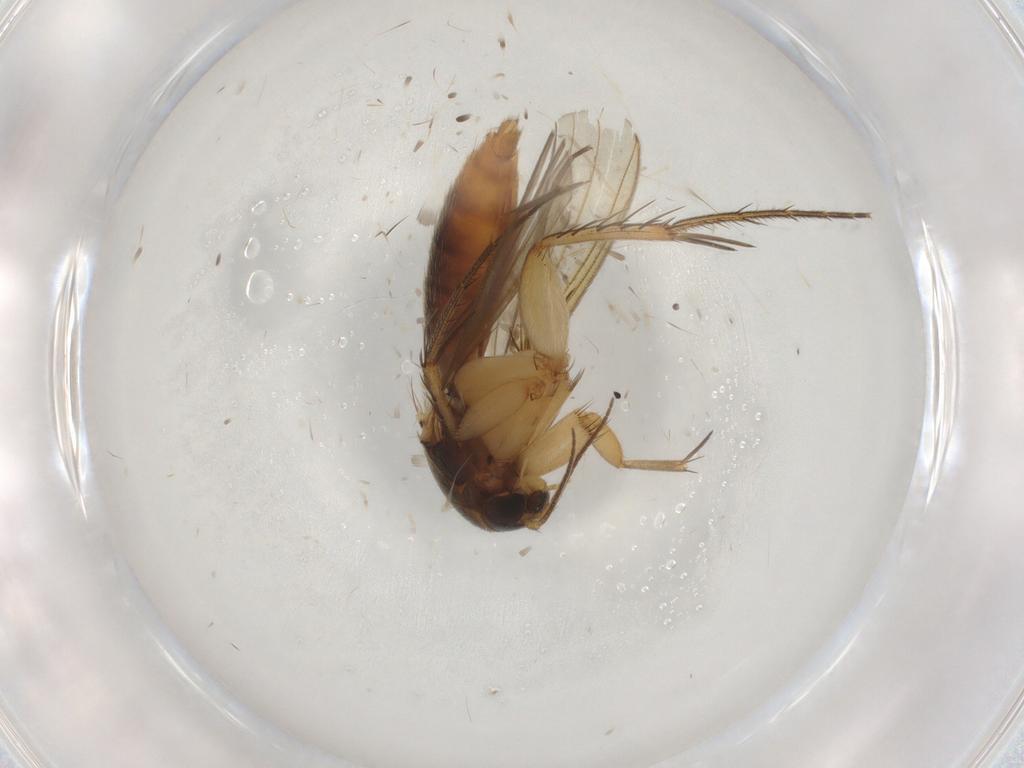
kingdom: Animalia
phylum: Arthropoda
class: Insecta
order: Diptera
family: Mycetophilidae
